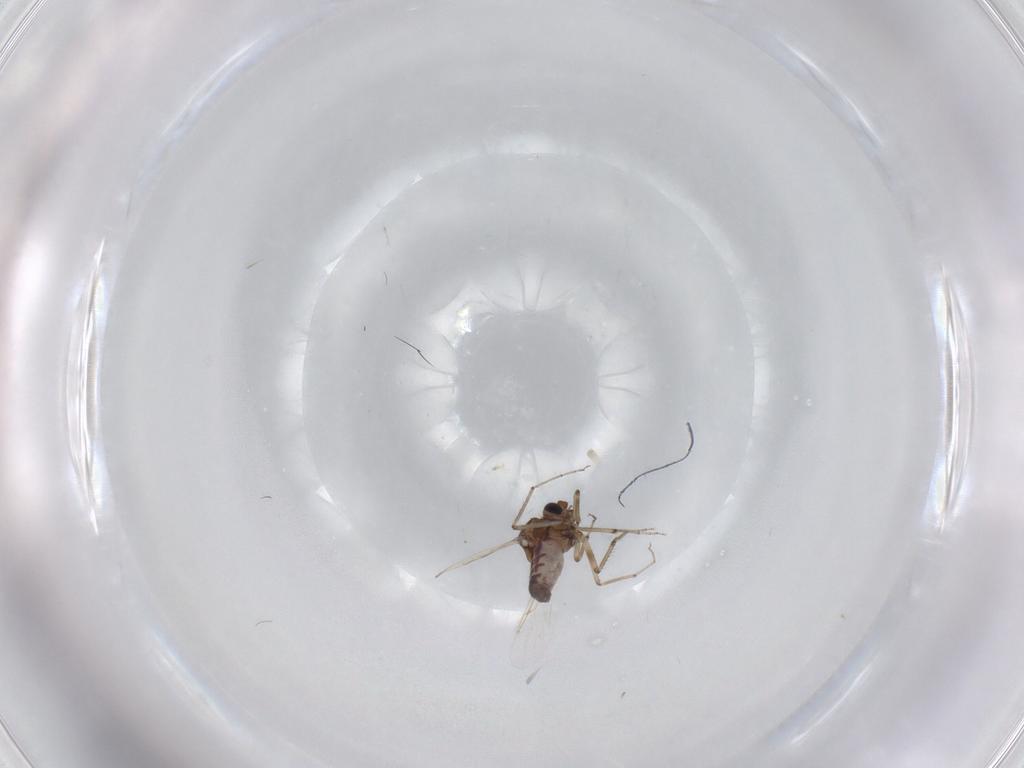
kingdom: Animalia
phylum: Arthropoda
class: Insecta
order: Diptera
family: Ceratopogonidae
